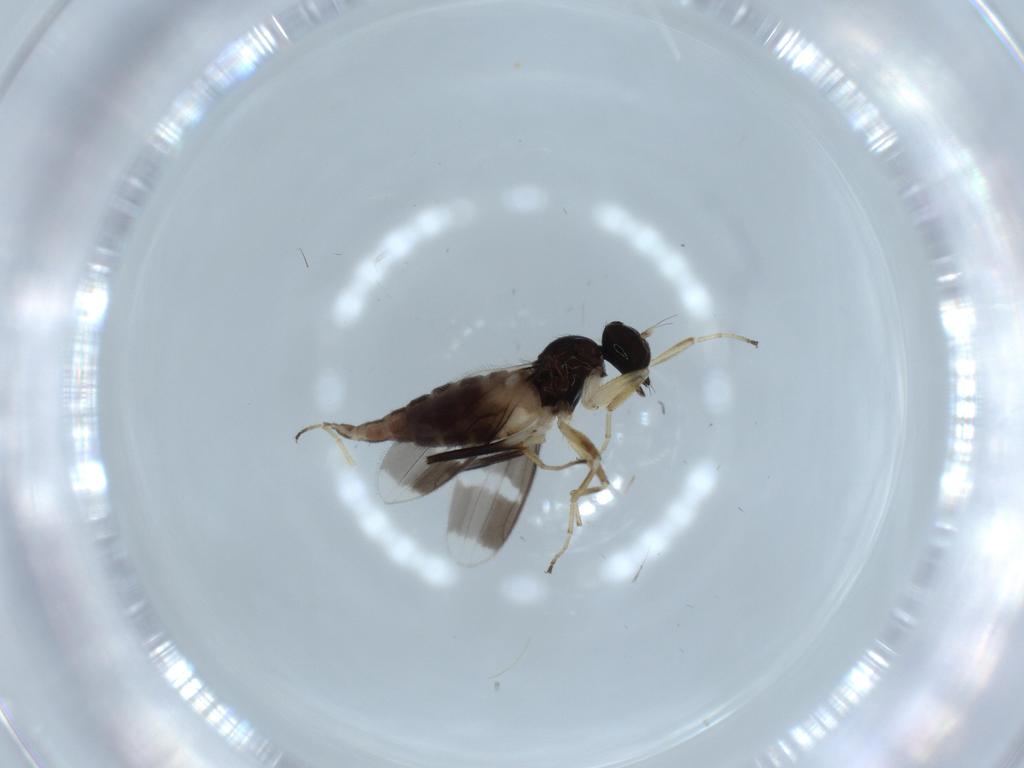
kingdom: Animalia
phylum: Arthropoda
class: Insecta
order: Diptera
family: Hybotidae
